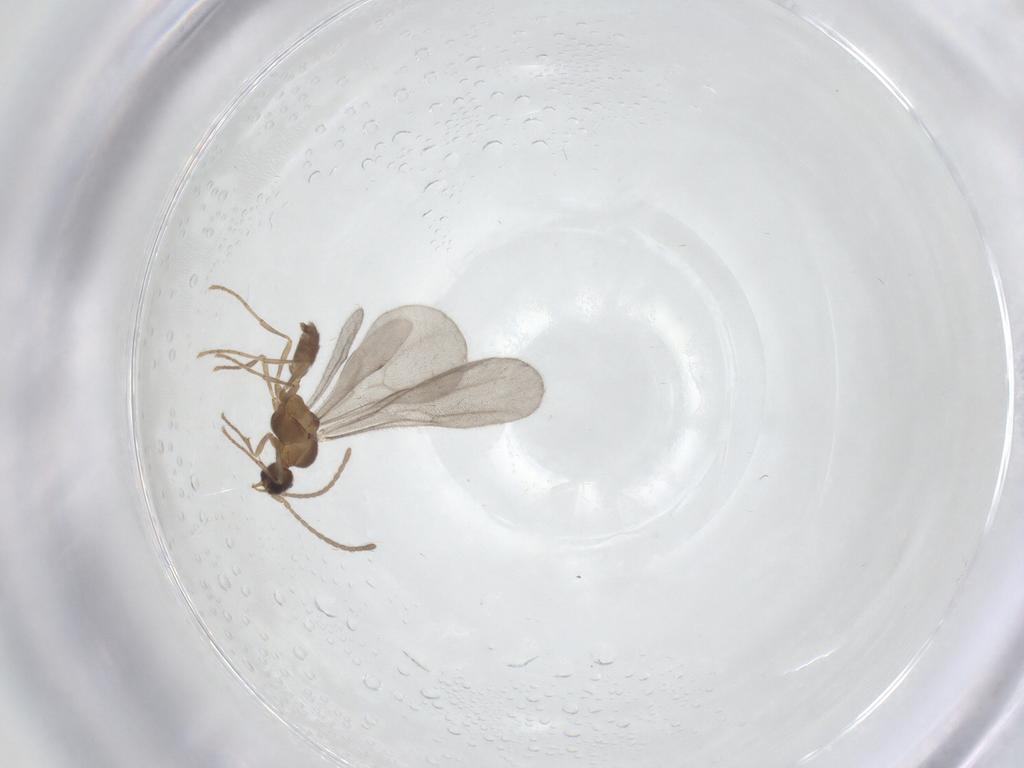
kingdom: Animalia
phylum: Arthropoda
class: Insecta
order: Hymenoptera
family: Formicidae
